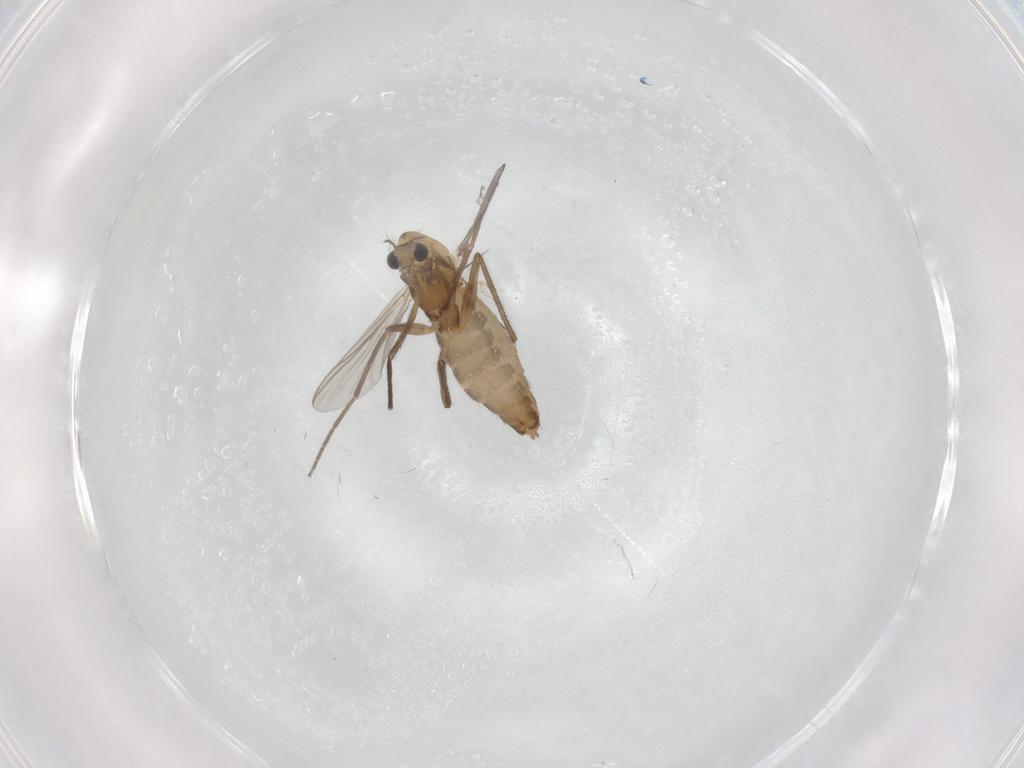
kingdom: Animalia
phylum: Arthropoda
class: Insecta
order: Diptera
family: Chironomidae
